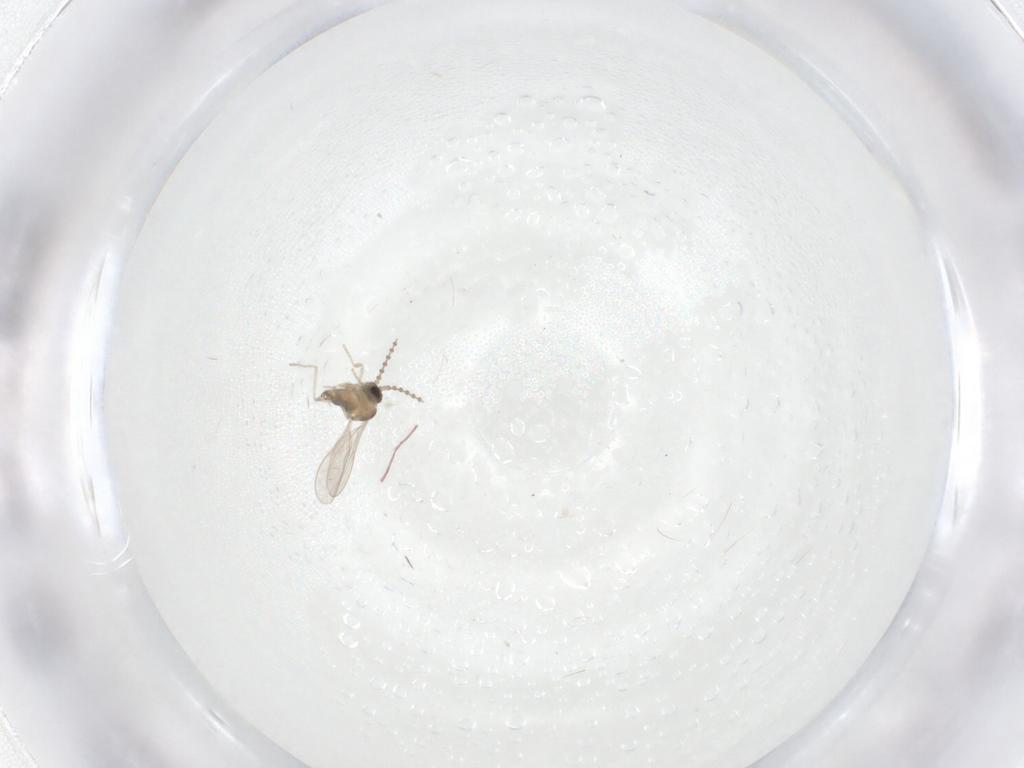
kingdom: Animalia
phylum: Arthropoda
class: Insecta
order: Diptera
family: Cecidomyiidae
